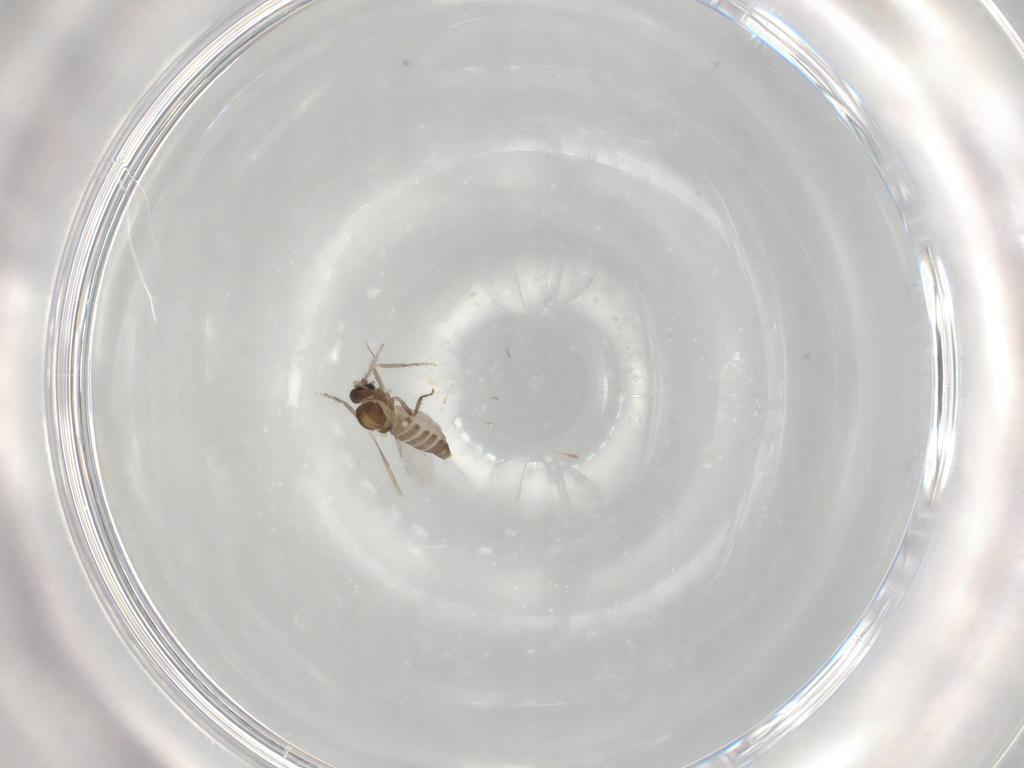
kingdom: Animalia
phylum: Arthropoda
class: Insecta
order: Diptera
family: Ceratopogonidae
